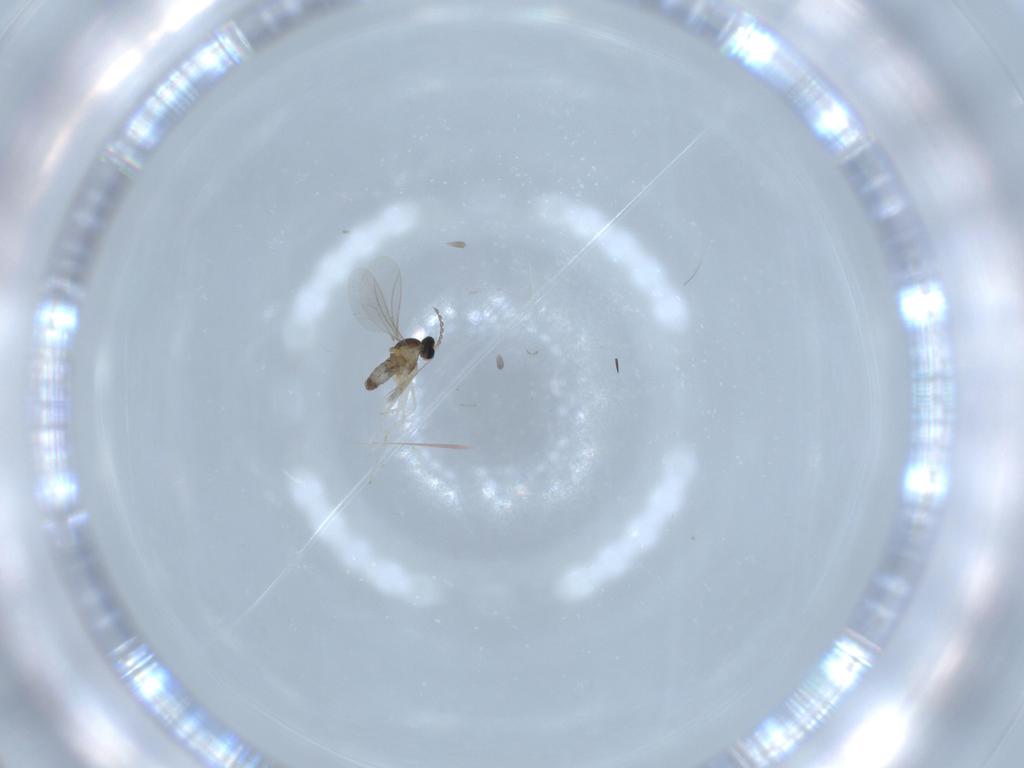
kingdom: Animalia
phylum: Arthropoda
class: Insecta
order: Diptera
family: Ceratopogonidae
